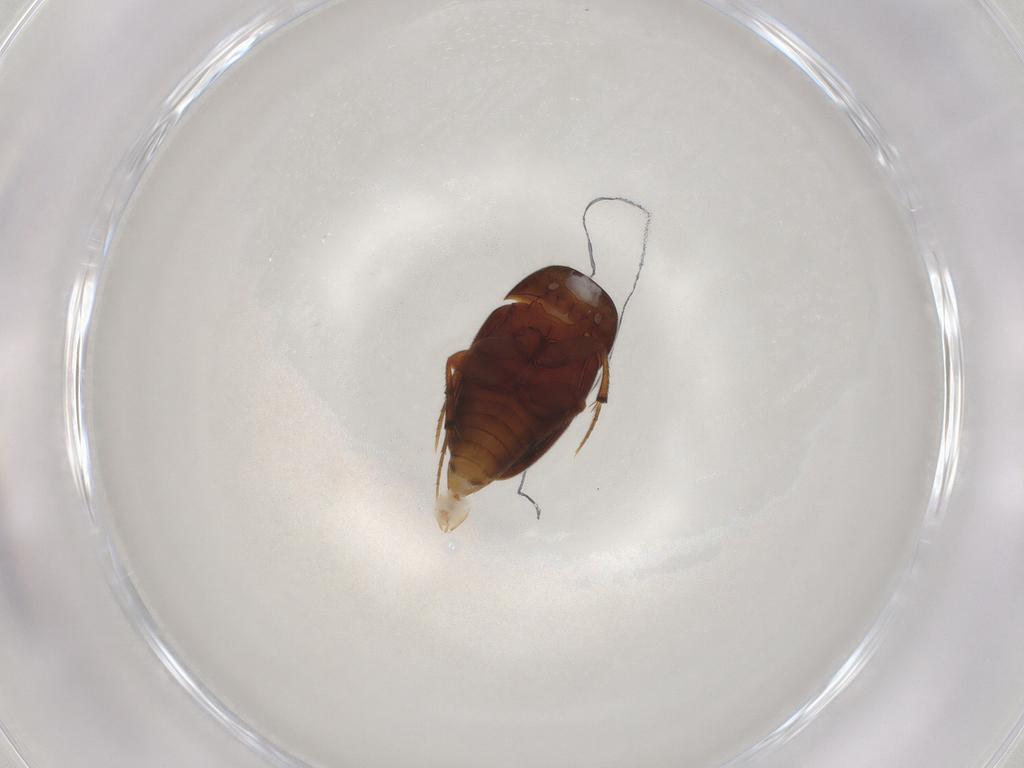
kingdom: Animalia
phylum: Arthropoda
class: Insecta
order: Coleoptera
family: Leiodidae
